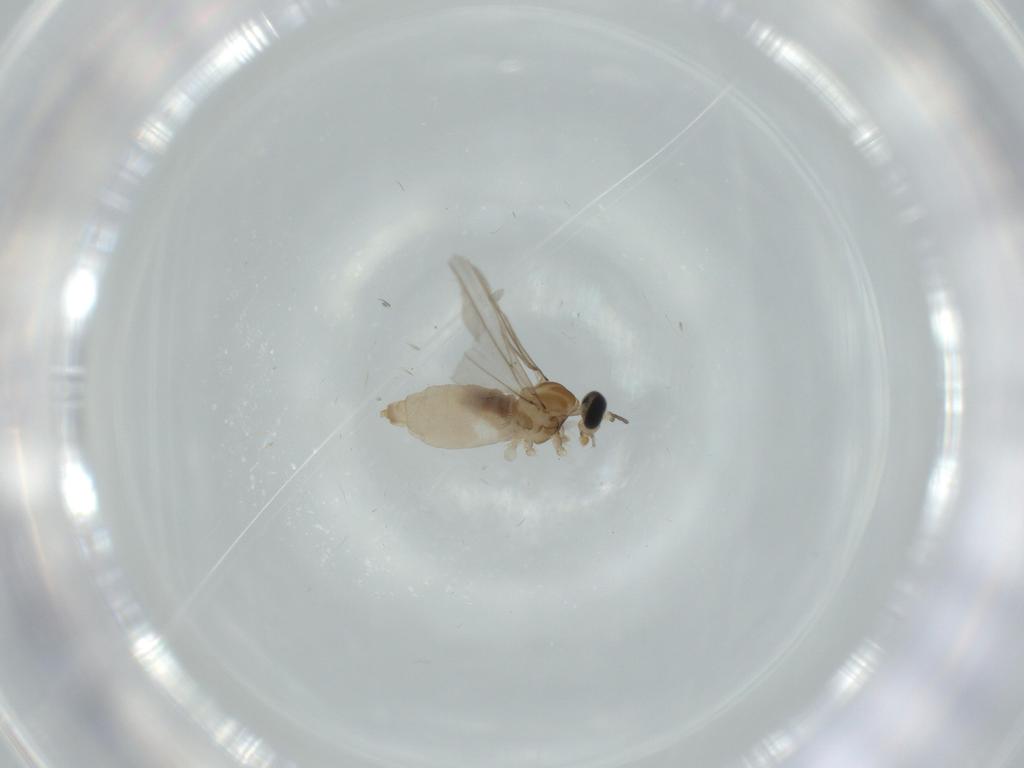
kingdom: Animalia
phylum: Arthropoda
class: Insecta
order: Diptera
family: Cecidomyiidae
